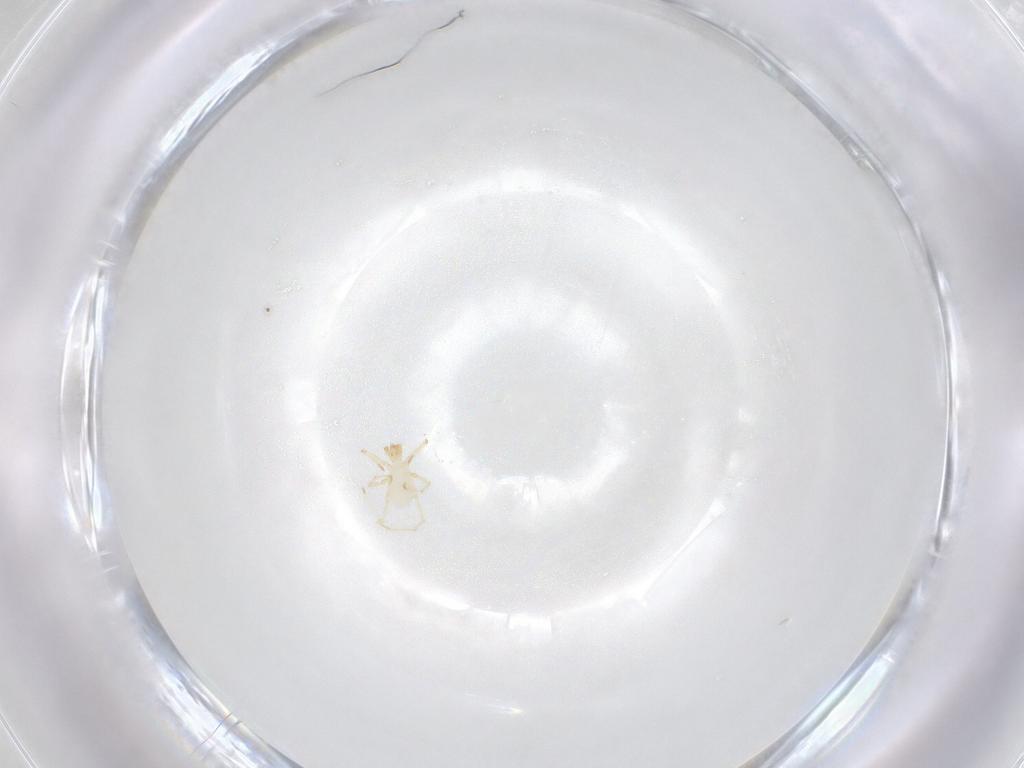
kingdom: Animalia
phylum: Arthropoda
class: Arachnida
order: Trombidiformes
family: Erythraeidae
